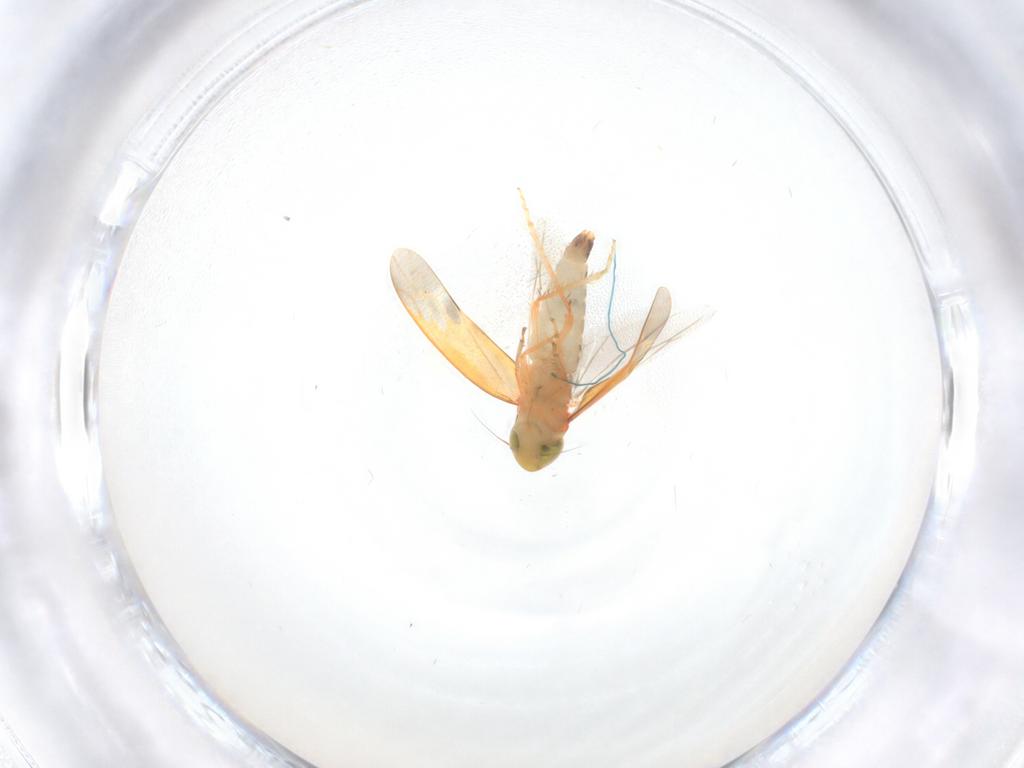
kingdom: Animalia
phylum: Arthropoda
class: Insecta
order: Hemiptera
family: Cicadellidae
